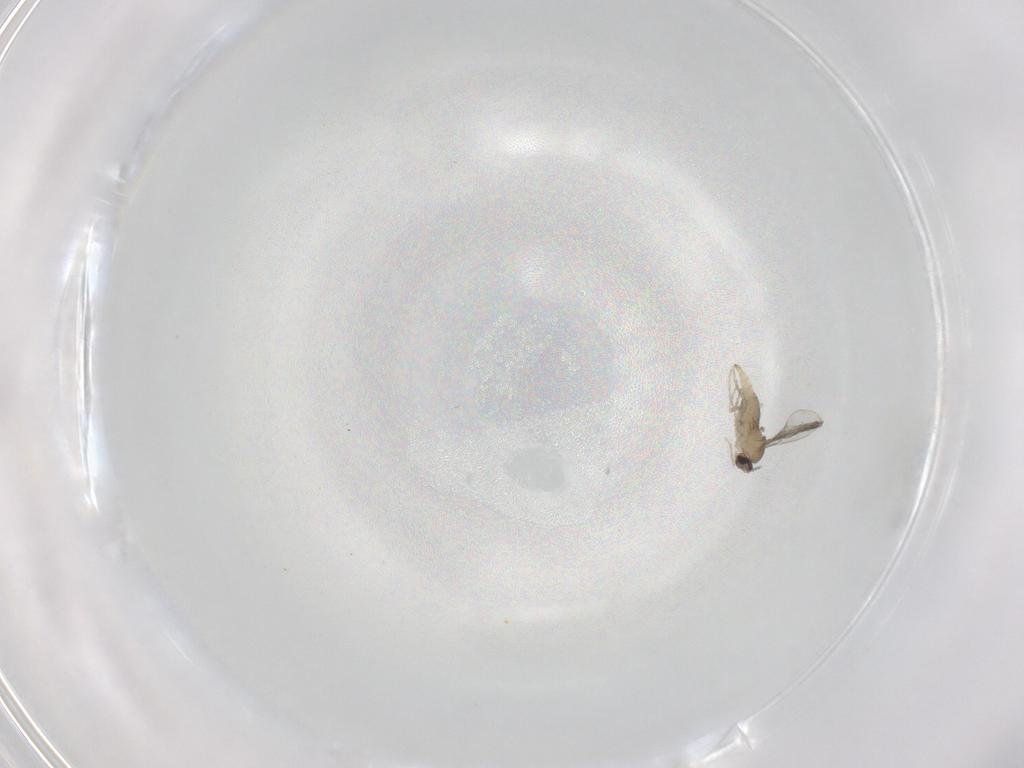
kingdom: Animalia
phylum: Arthropoda
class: Insecta
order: Diptera
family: Cecidomyiidae
